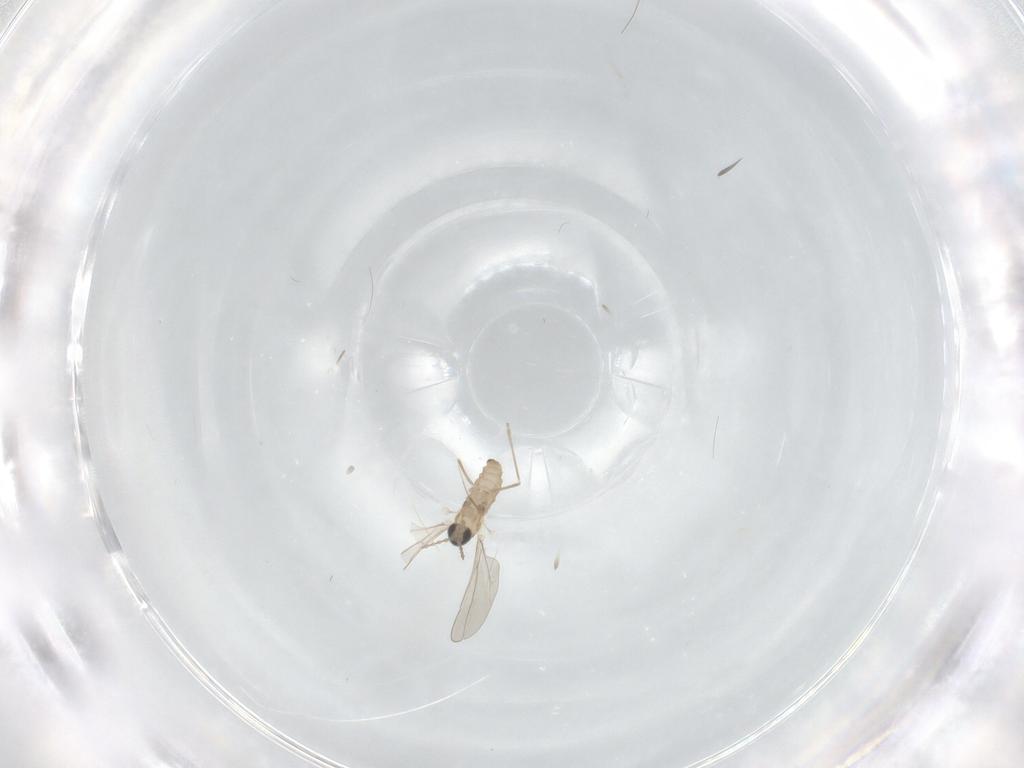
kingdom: Animalia
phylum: Arthropoda
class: Insecta
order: Diptera
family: Cecidomyiidae
